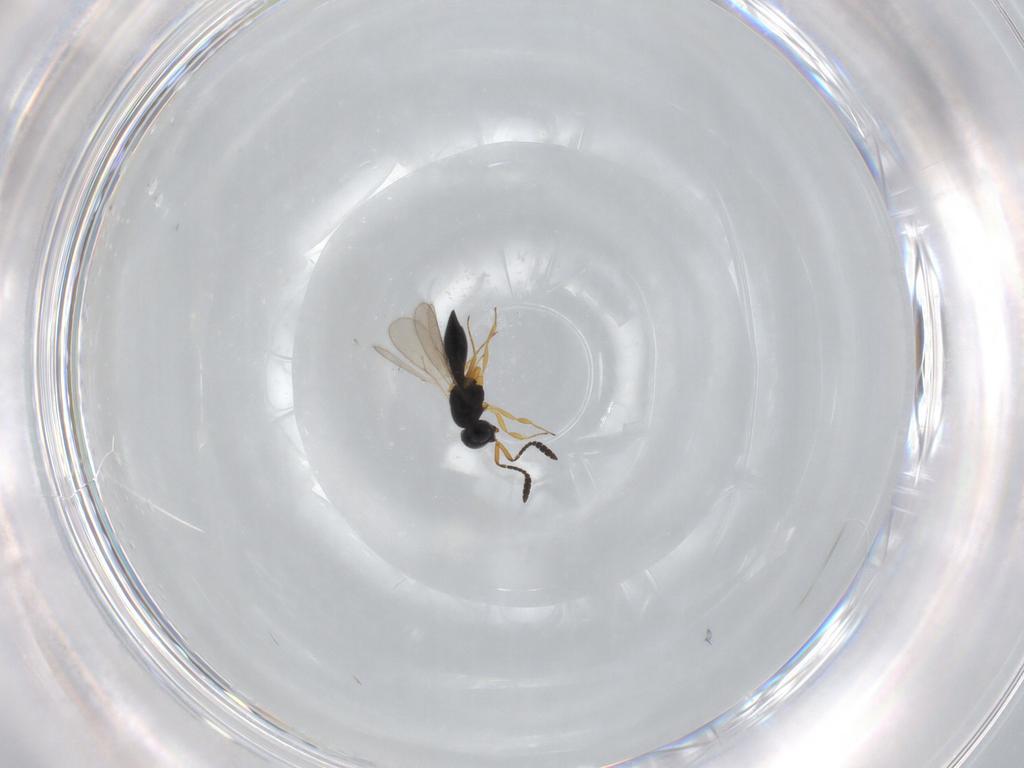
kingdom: Animalia
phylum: Arthropoda
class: Insecta
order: Hymenoptera
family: Scelionidae
